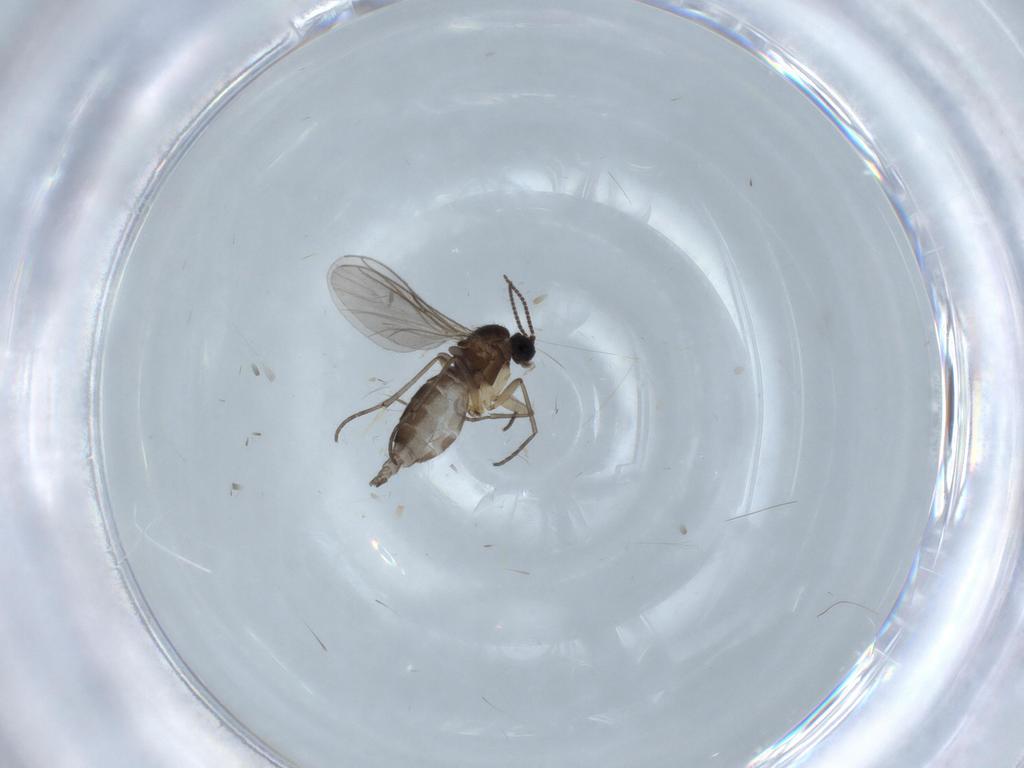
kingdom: Animalia
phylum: Arthropoda
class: Insecta
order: Diptera
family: Sciaridae
